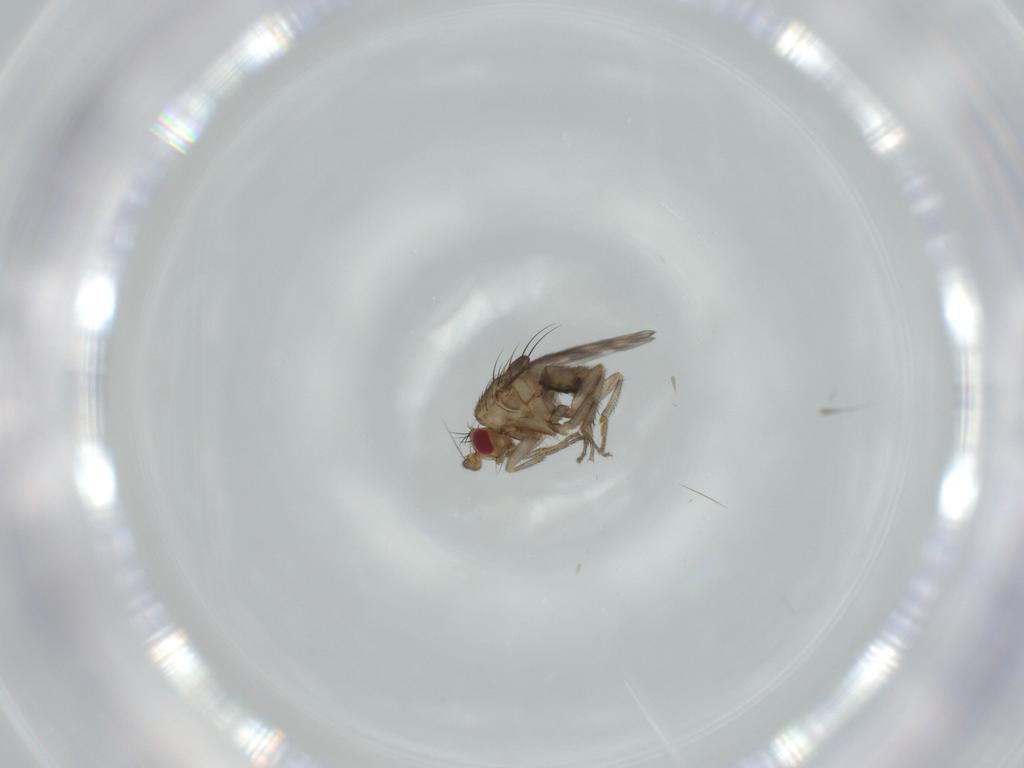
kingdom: Animalia
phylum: Arthropoda
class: Insecta
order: Diptera
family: Sphaeroceridae
